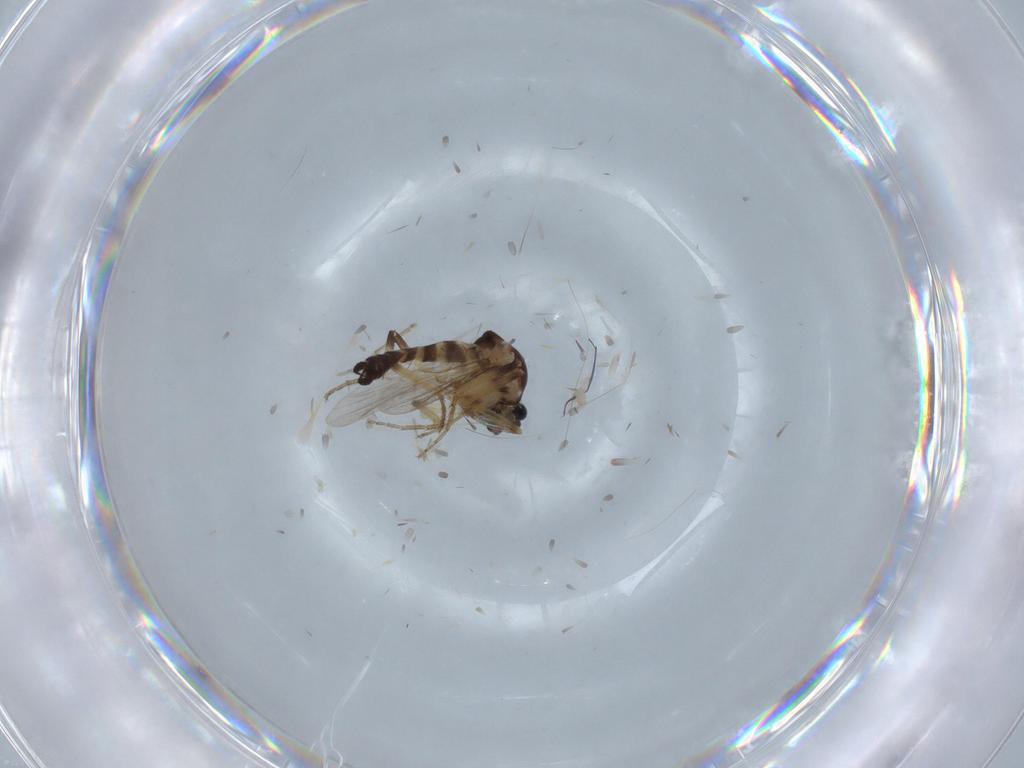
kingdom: Animalia
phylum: Arthropoda
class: Insecta
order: Diptera
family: Ceratopogonidae
